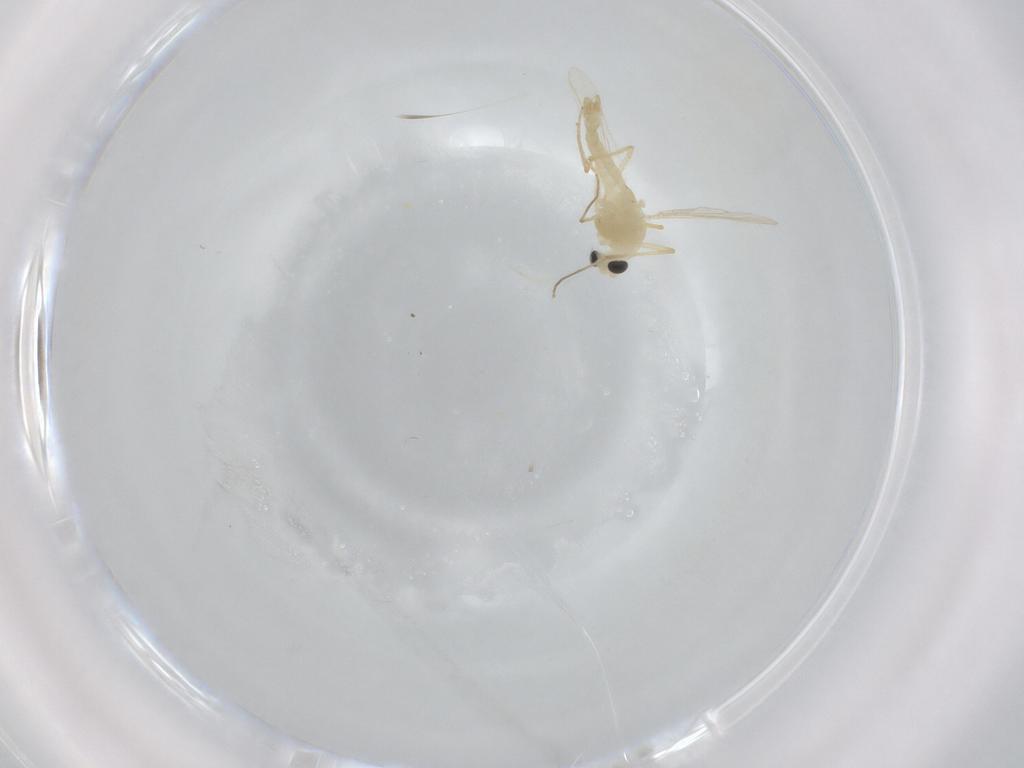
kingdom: Animalia
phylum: Arthropoda
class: Insecta
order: Diptera
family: Chironomidae
